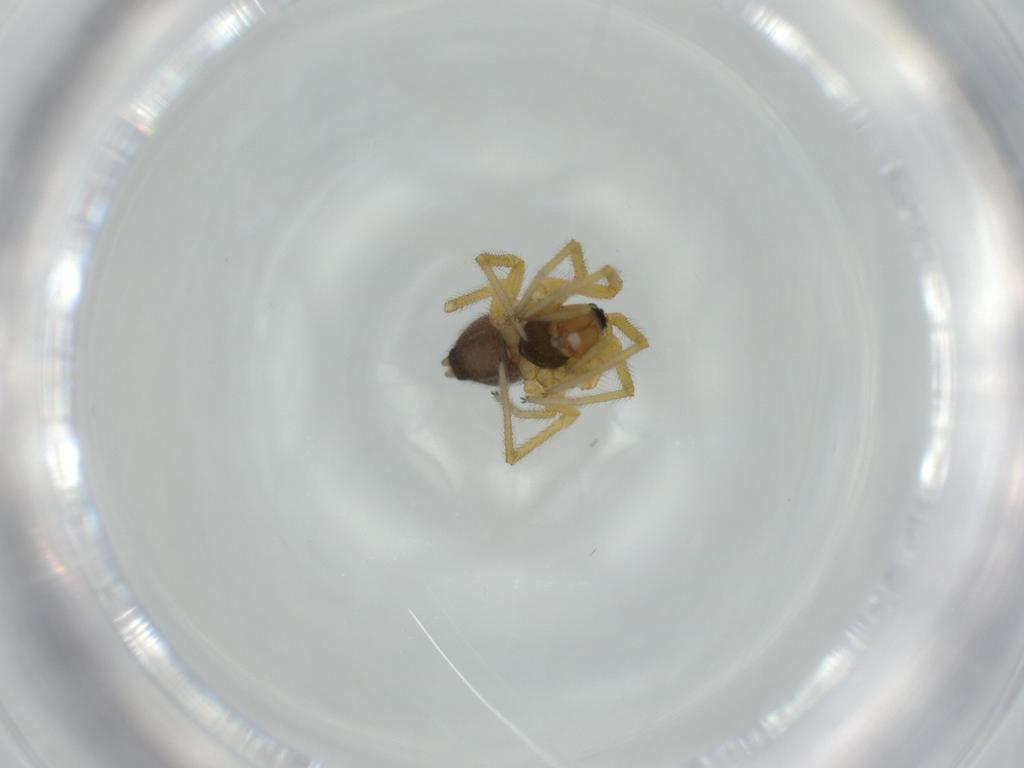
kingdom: Animalia
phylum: Arthropoda
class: Arachnida
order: Araneae
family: Linyphiidae
